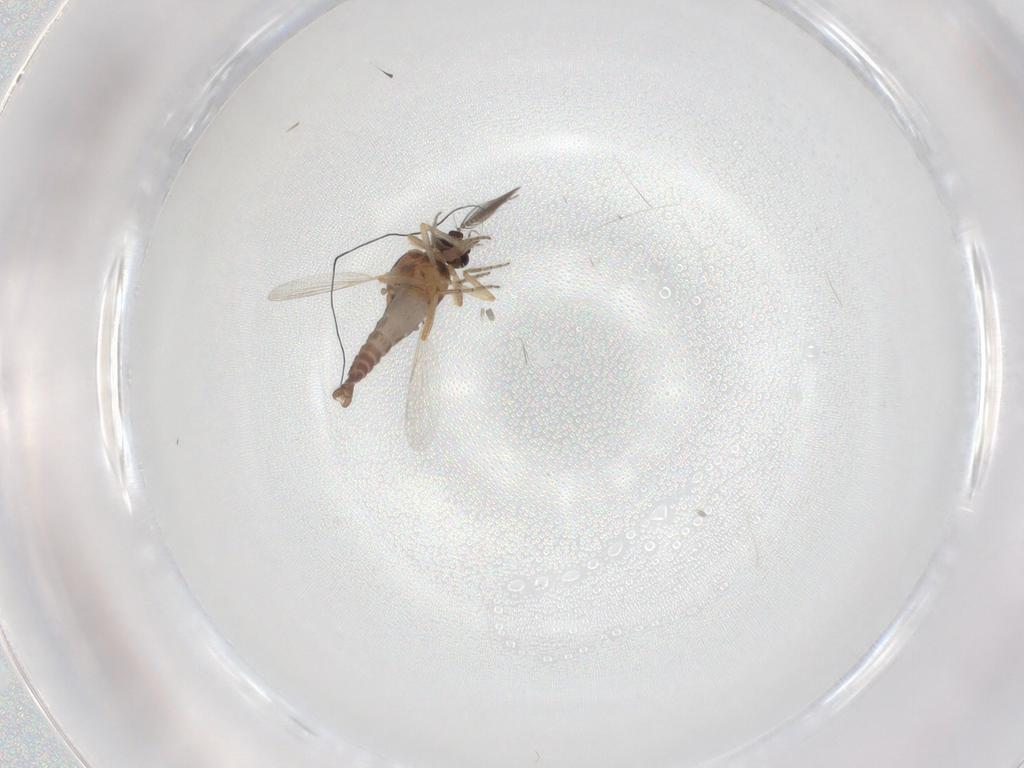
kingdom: Animalia
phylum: Arthropoda
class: Insecta
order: Diptera
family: Ceratopogonidae
